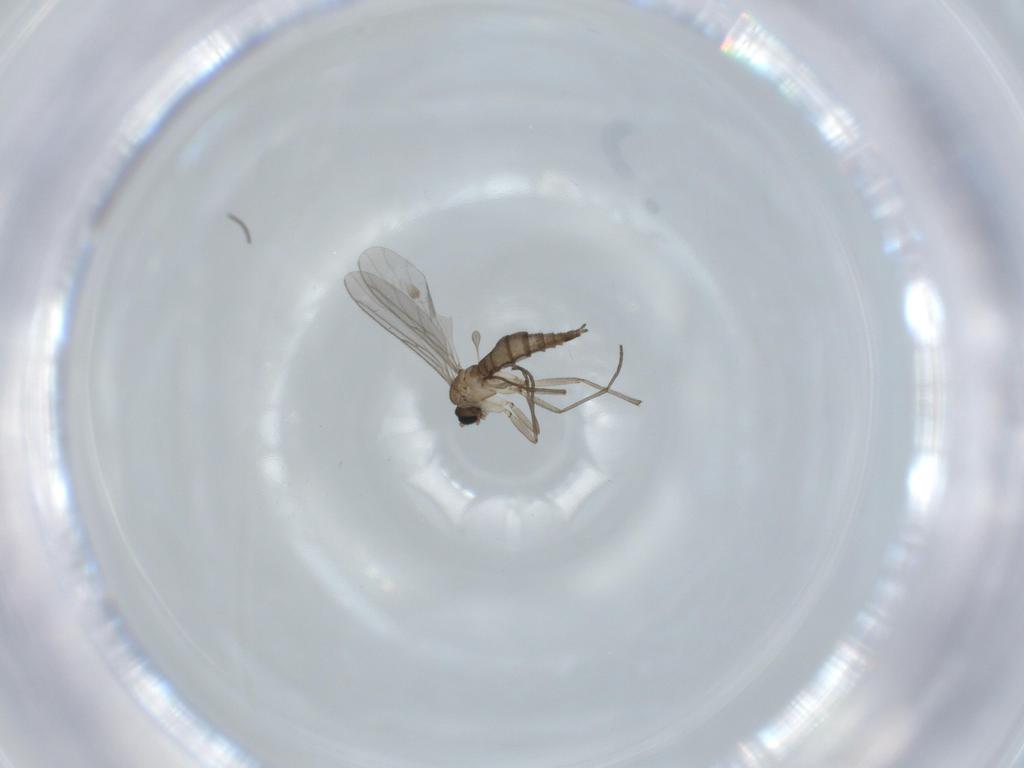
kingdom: Animalia
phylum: Arthropoda
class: Insecta
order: Diptera
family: Sciaridae
